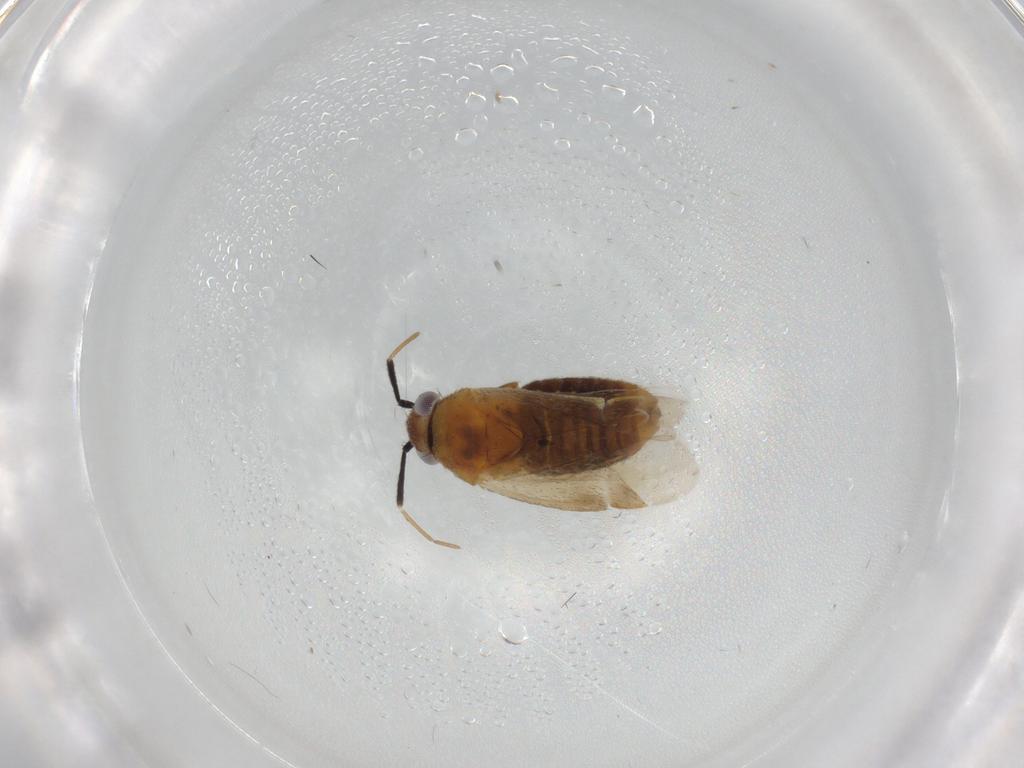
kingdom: Animalia
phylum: Arthropoda
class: Insecta
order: Hemiptera
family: Miridae
